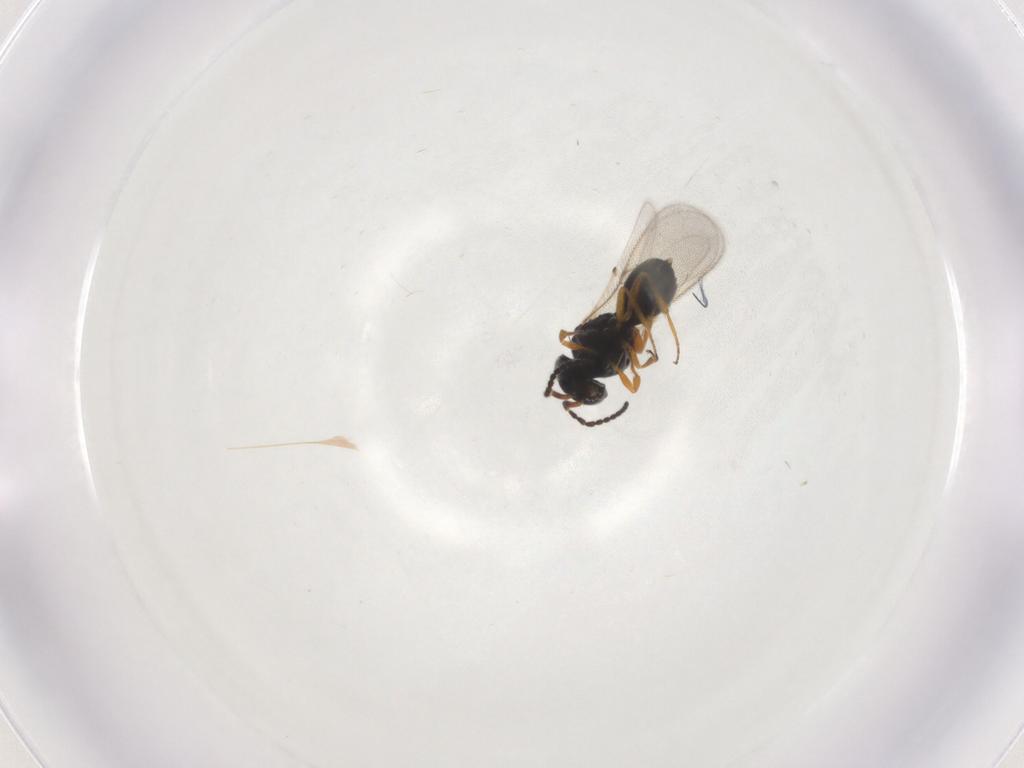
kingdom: Animalia
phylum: Arthropoda
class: Insecta
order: Hymenoptera
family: Scelionidae
